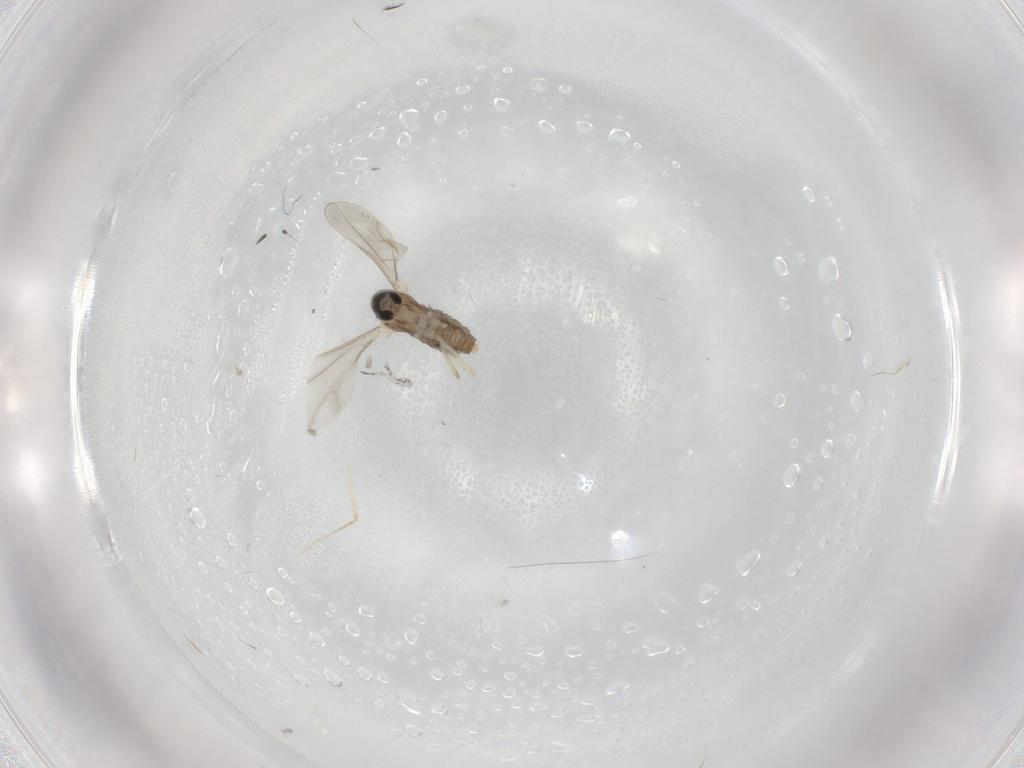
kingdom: Animalia
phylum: Arthropoda
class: Insecta
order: Diptera
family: Cecidomyiidae
